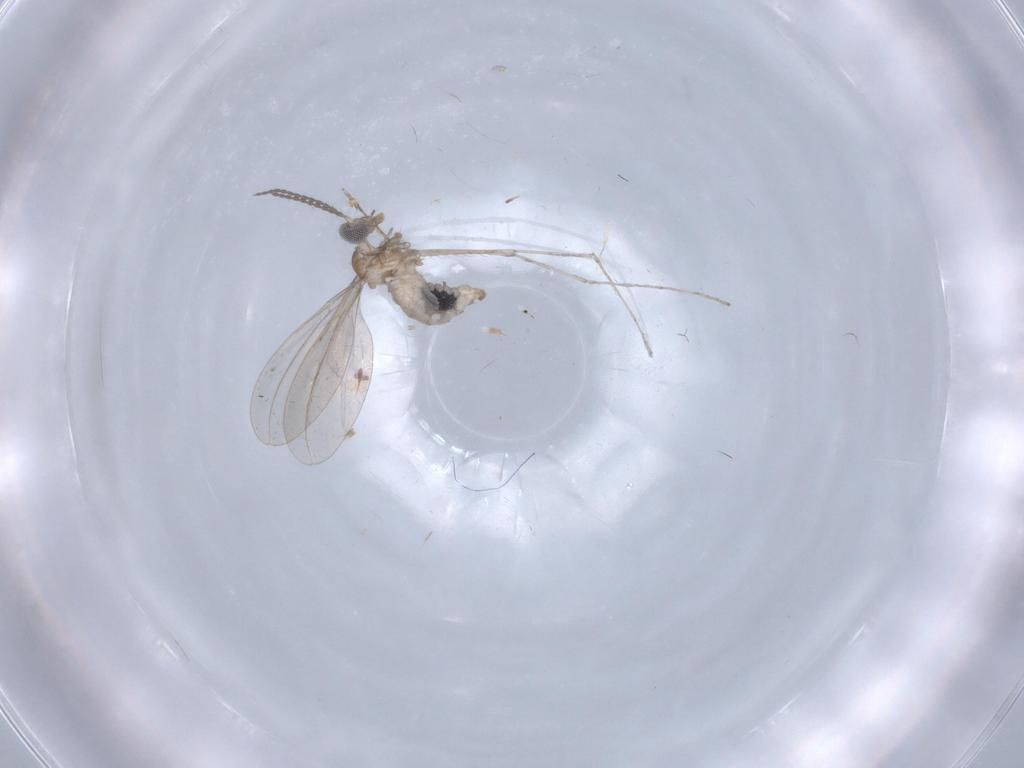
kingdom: Animalia
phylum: Arthropoda
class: Insecta
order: Diptera
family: Cecidomyiidae
